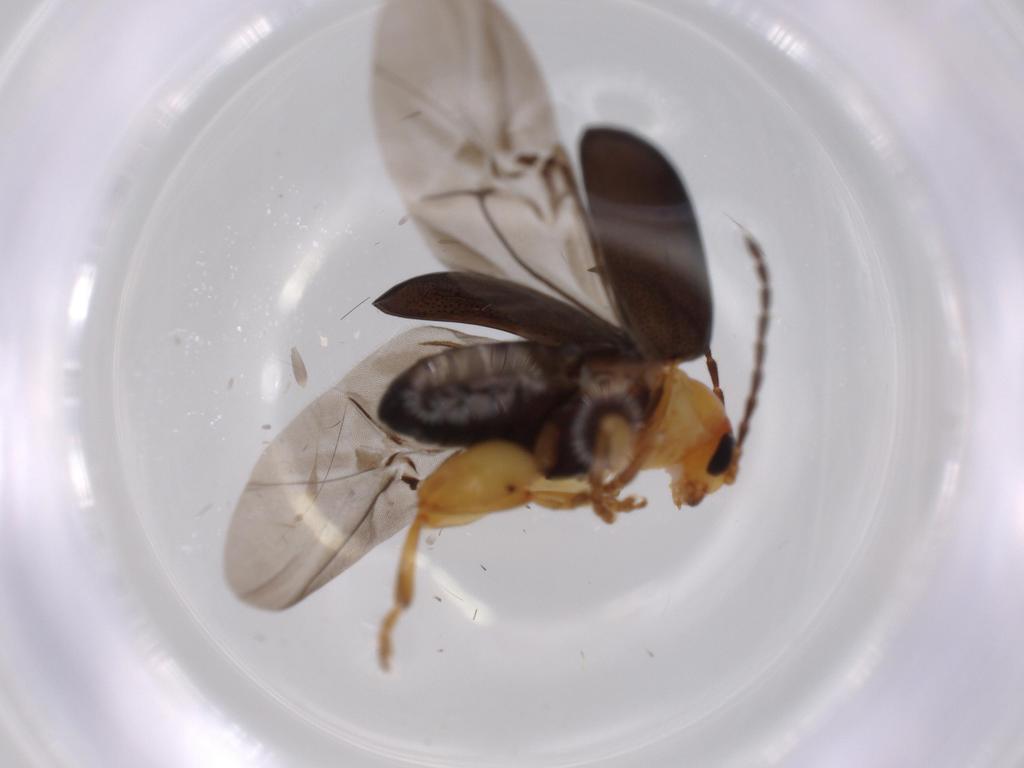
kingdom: Animalia
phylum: Arthropoda
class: Insecta
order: Coleoptera
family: Chrysomelidae
